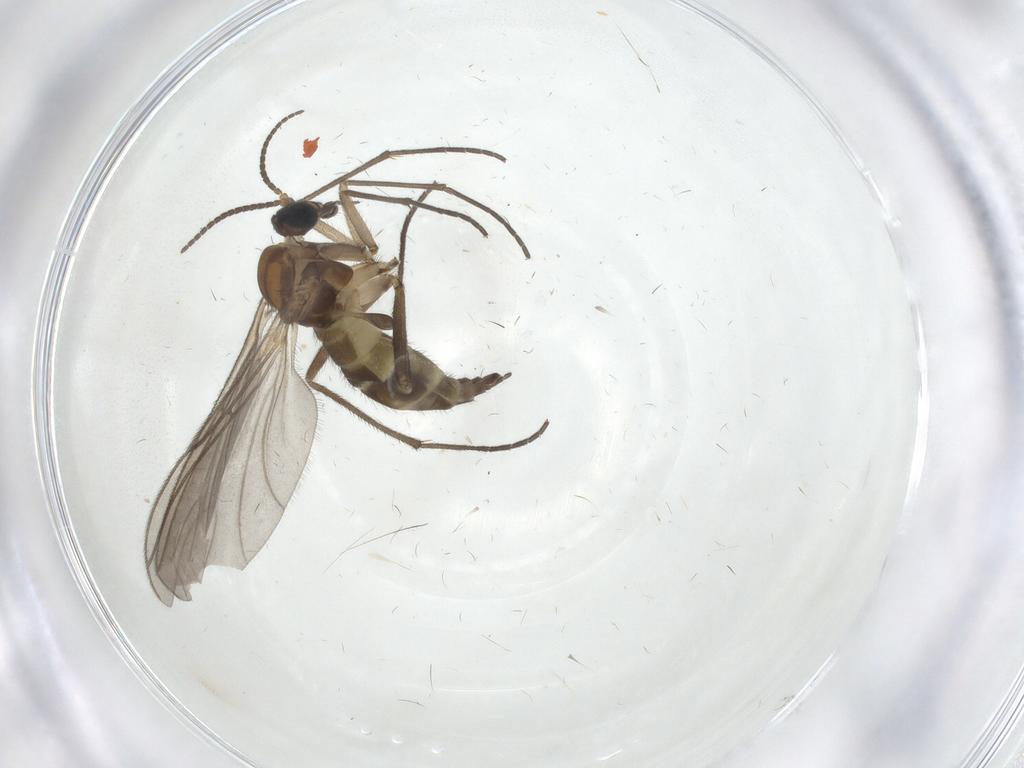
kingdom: Animalia
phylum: Arthropoda
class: Insecta
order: Diptera
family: Sciaridae
